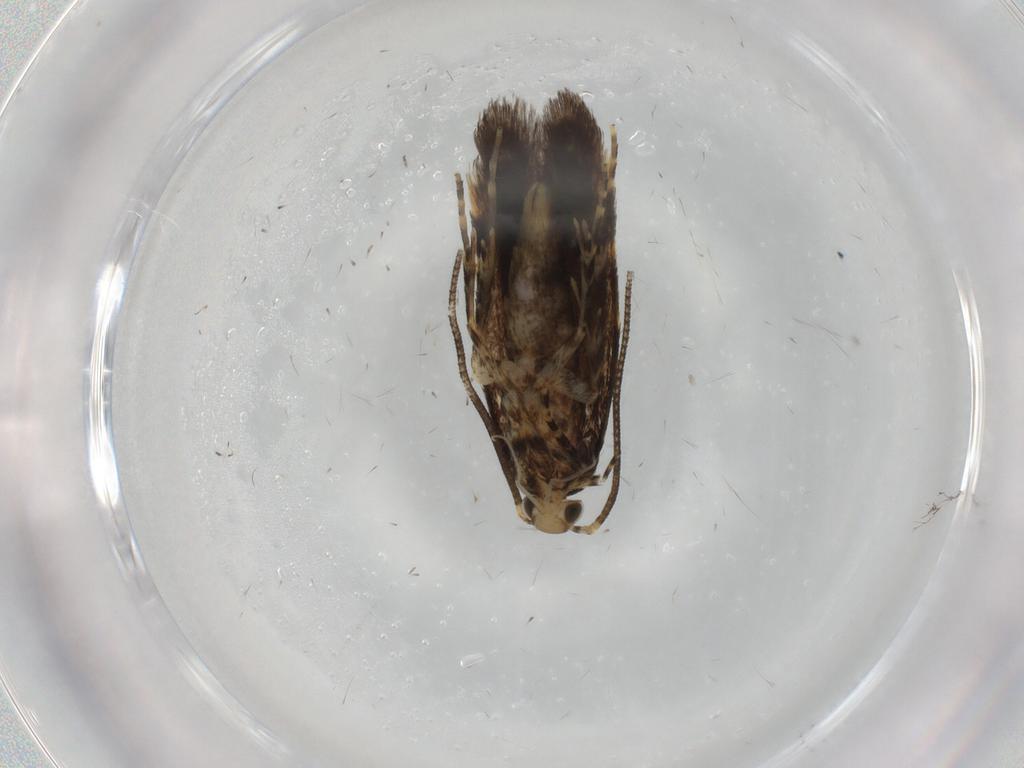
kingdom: Animalia
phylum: Arthropoda
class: Insecta
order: Lepidoptera
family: Oecophoridae
